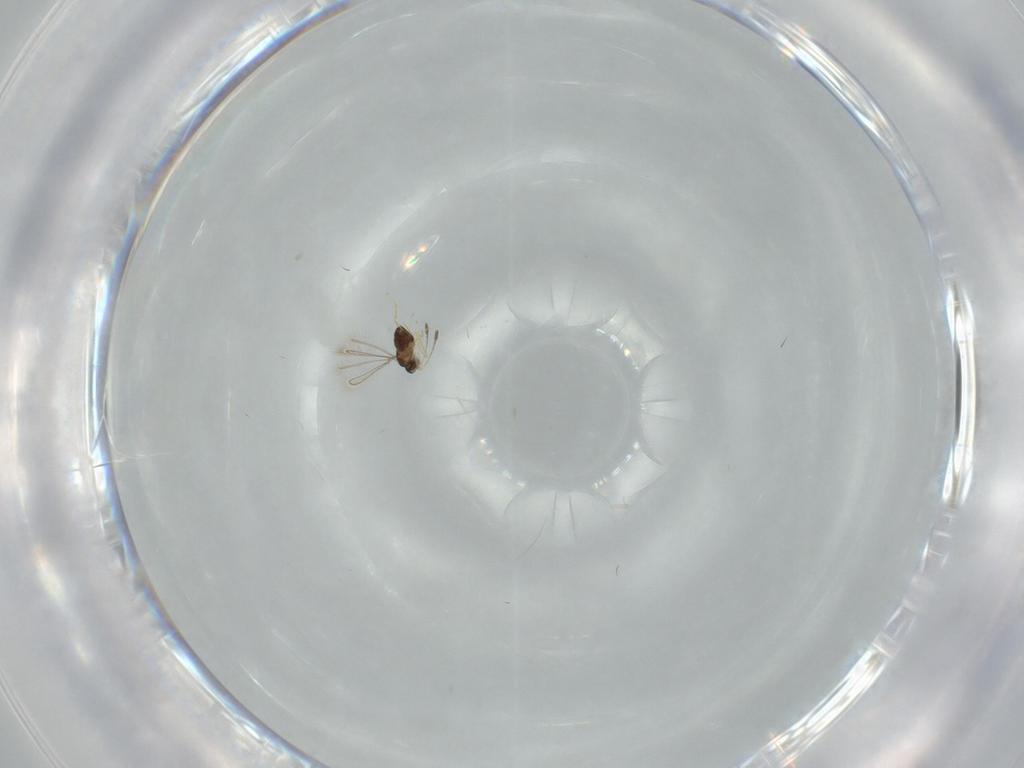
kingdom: Animalia
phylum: Arthropoda
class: Insecta
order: Hymenoptera
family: Diapriidae
